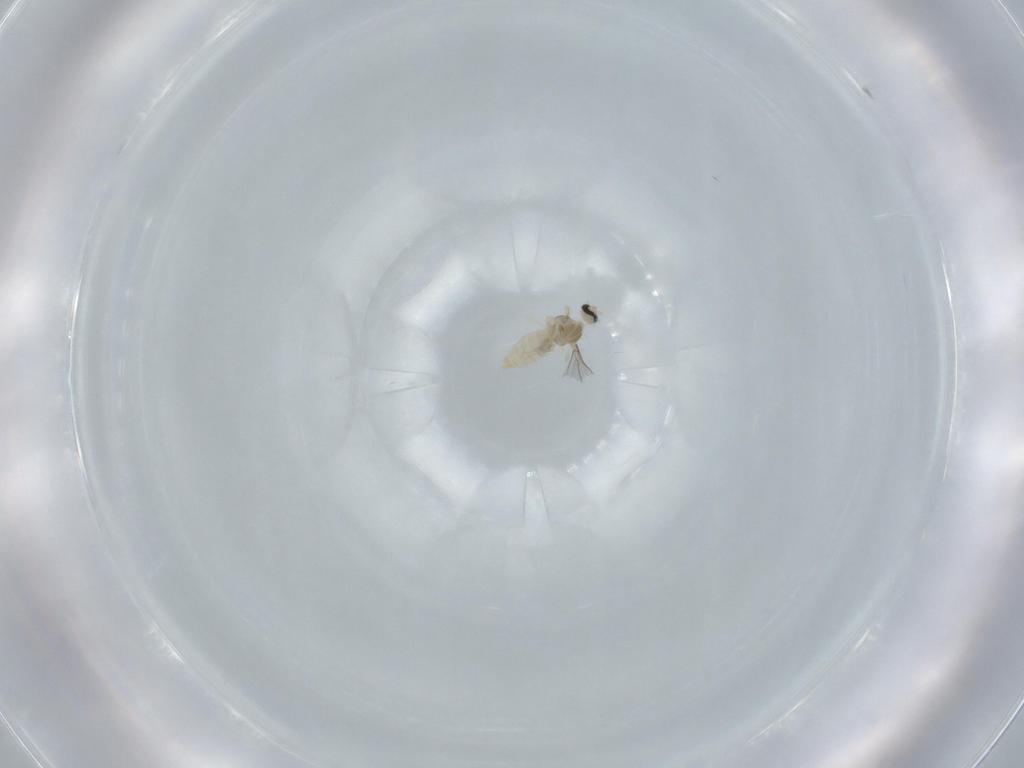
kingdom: Animalia
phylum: Arthropoda
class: Insecta
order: Diptera
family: Cecidomyiidae
